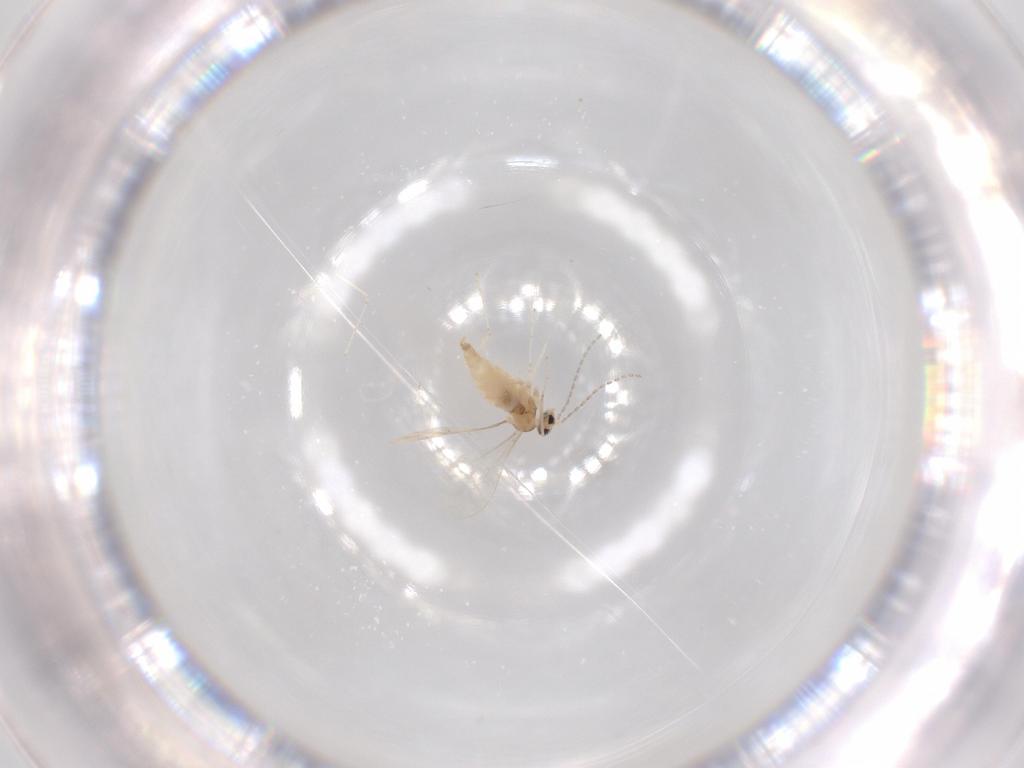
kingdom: Animalia
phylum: Arthropoda
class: Insecta
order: Diptera
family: Cecidomyiidae
